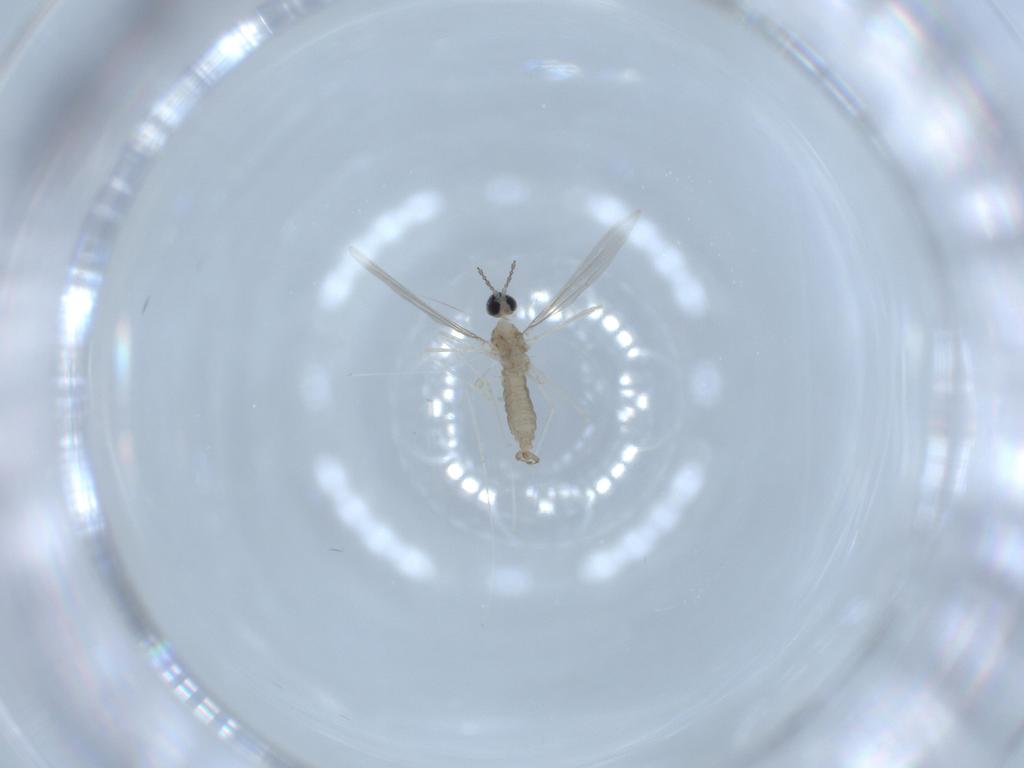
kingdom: Animalia
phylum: Arthropoda
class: Insecta
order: Diptera
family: Cecidomyiidae
